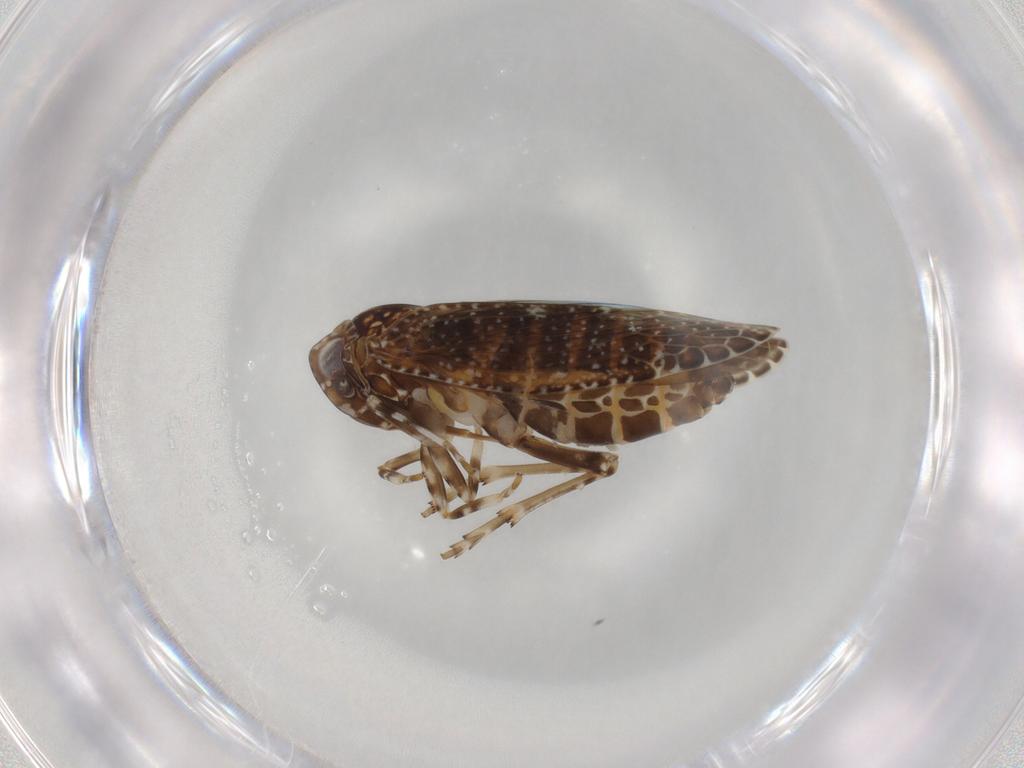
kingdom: Animalia
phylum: Arthropoda
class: Insecta
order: Hemiptera
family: Achilidae
